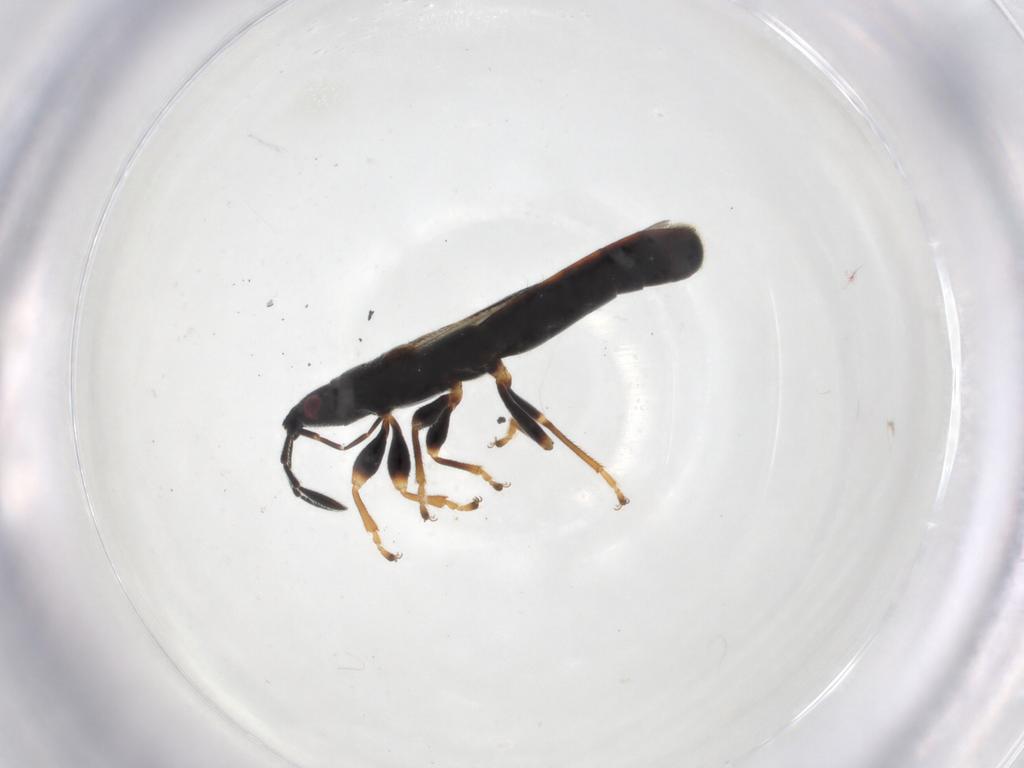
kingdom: Animalia
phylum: Arthropoda
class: Insecta
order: Hemiptera
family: Blissidae
